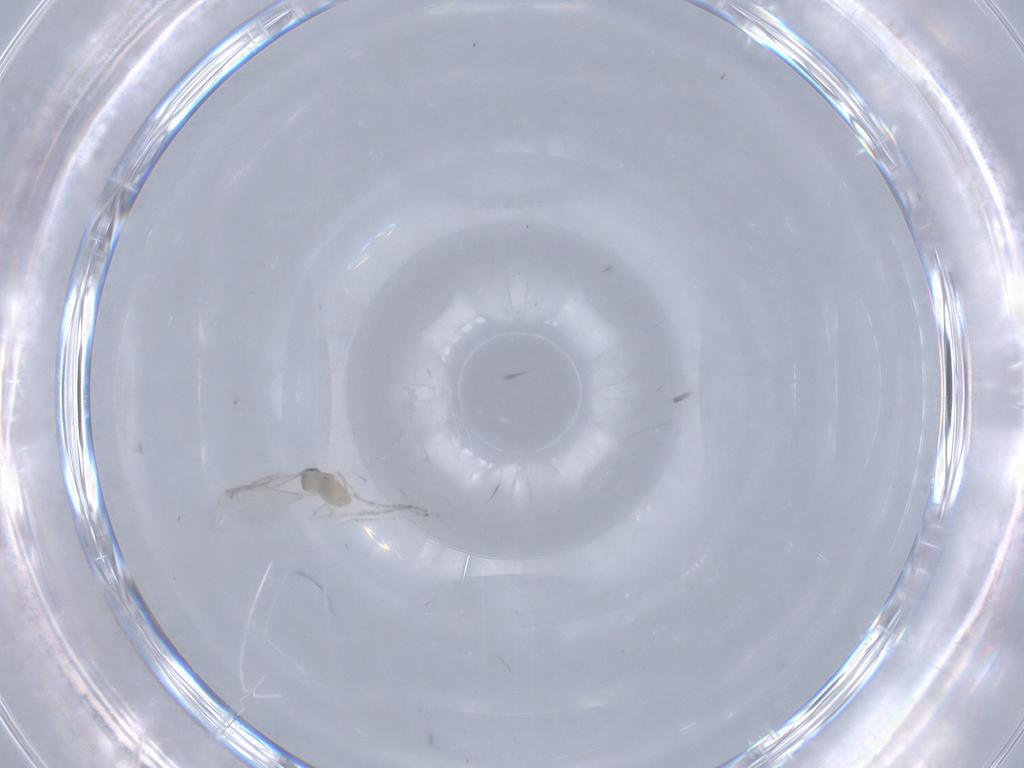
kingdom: Animalia
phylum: Arthropoda
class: Insecta
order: Diptera
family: Cecidomyiidae
